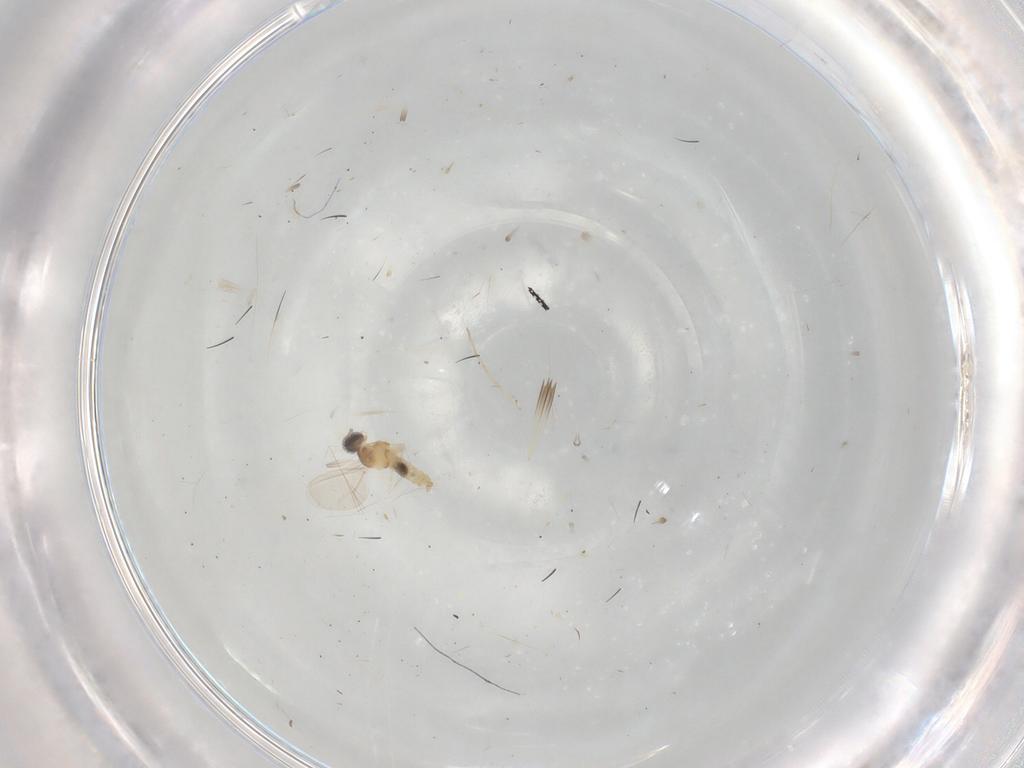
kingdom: Animalia
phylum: Arthropoda
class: Insecta
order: Diptera
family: Cecidomyiidae
